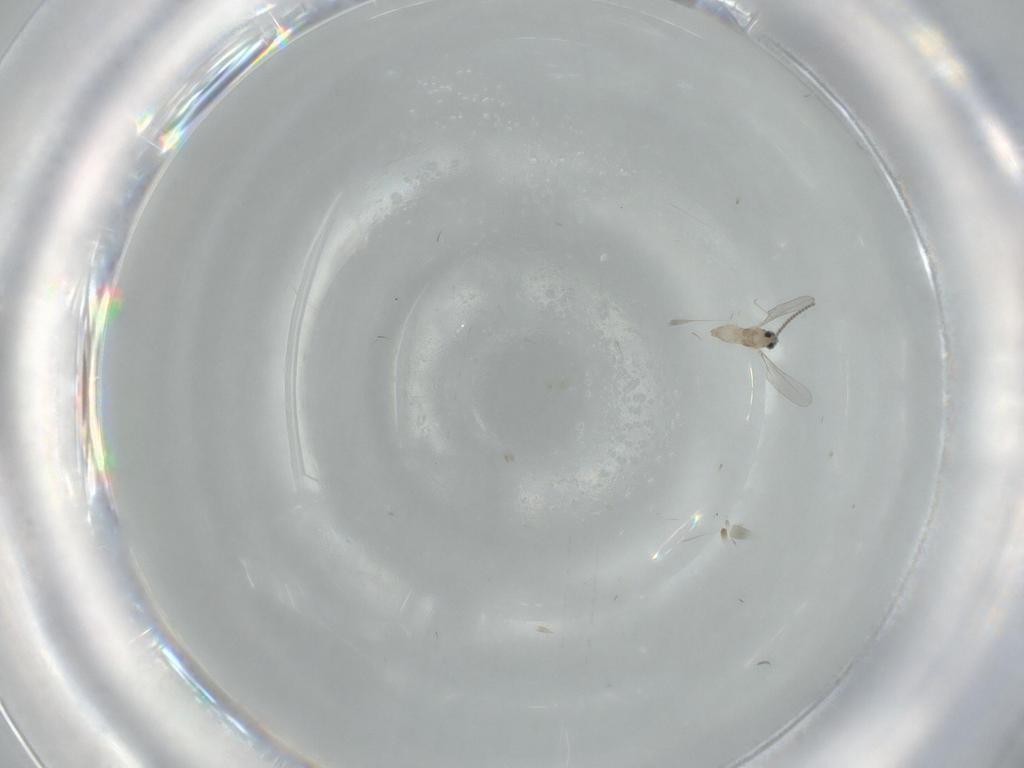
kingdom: Animalia
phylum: Arthropoda
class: Insecta
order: Diptera
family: Cecidomyiidae
